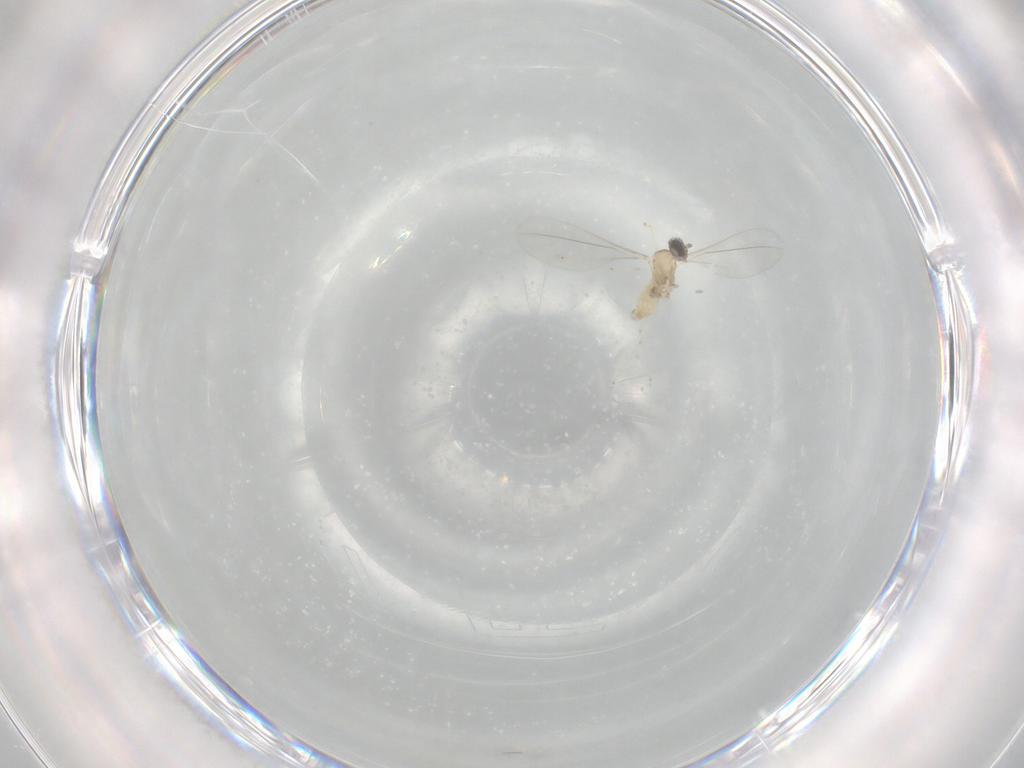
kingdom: Animalia
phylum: Arthropoda
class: Insecta
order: Diptera
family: Cecidomyiidae
